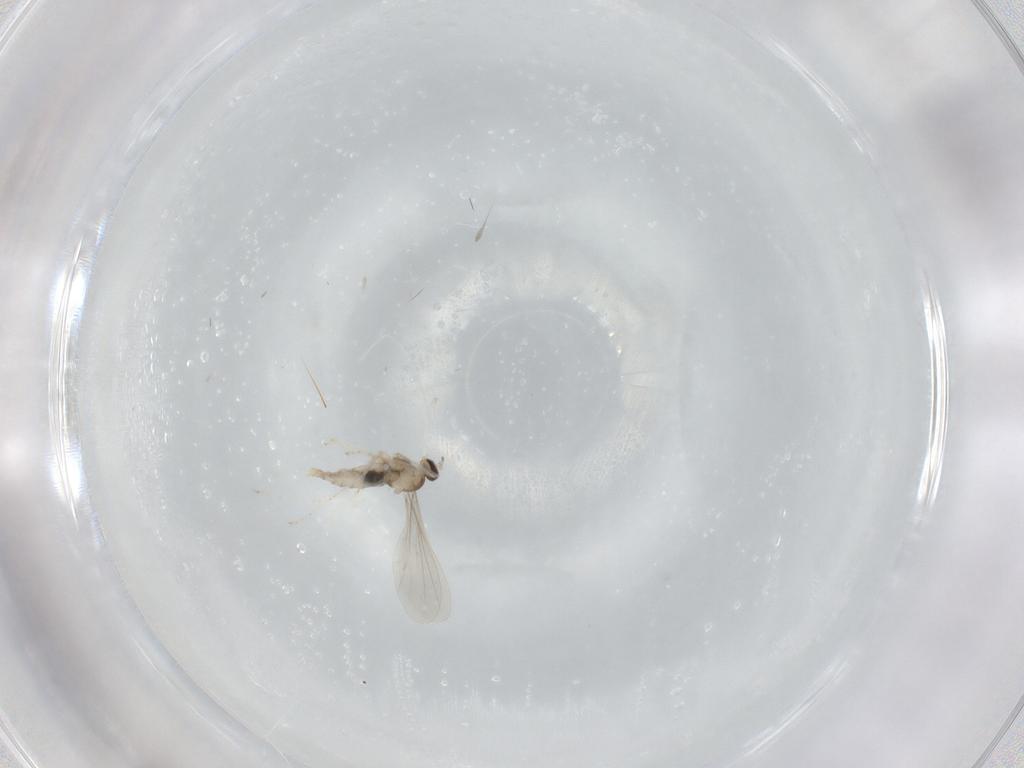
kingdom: Animalia
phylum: Arthropoda
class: Insecta
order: Diptera
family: Cecidomyiidae
